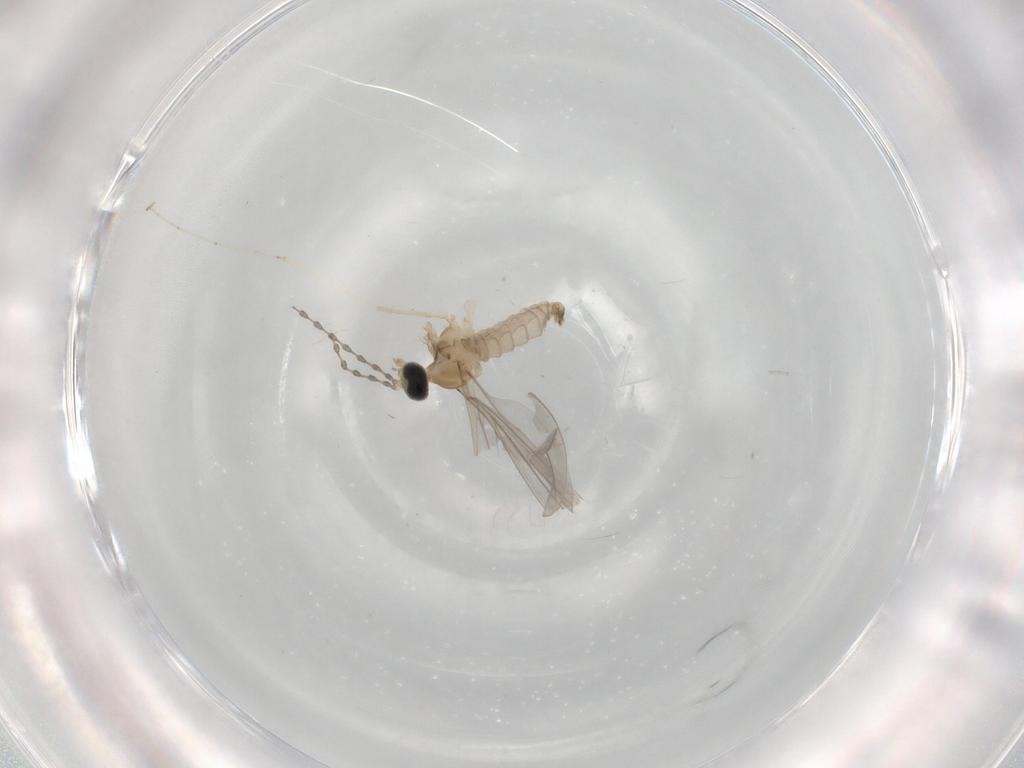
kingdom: Animalia
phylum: Arthropoda
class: Insecta
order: Diptera
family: Cecidomyiidae
